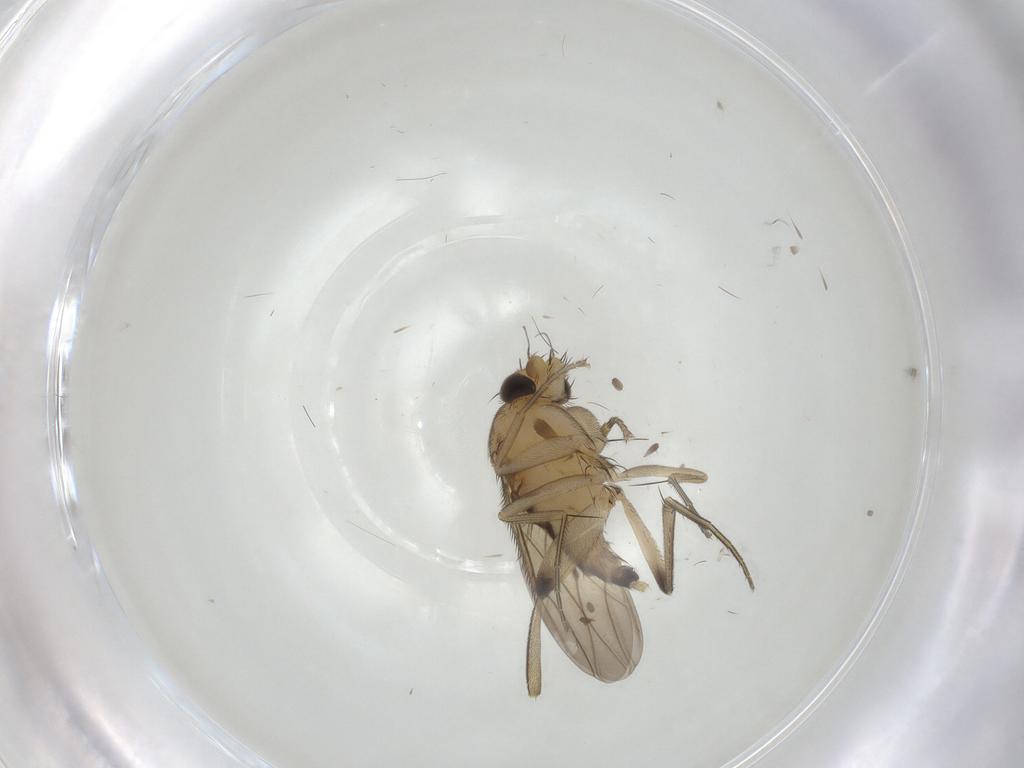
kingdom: Animalia
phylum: Arthropoda
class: Insecta
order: Diptera
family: Phoridae
